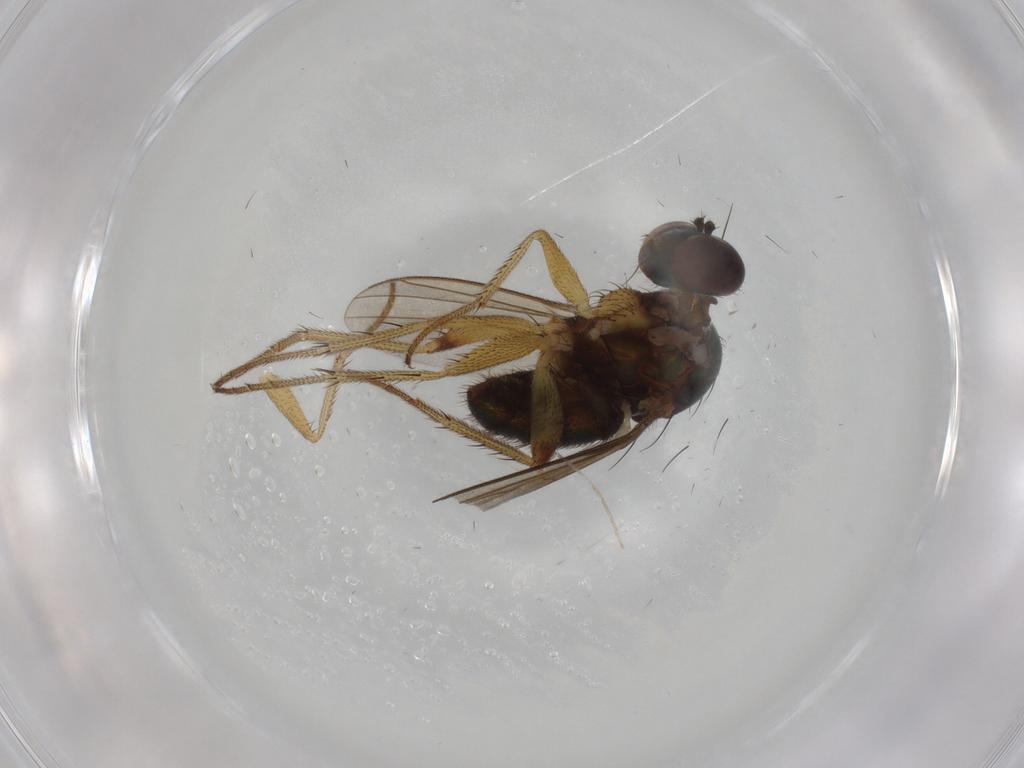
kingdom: Animalia
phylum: Arthropoda
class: Insecta
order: Diptera
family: Dolichopodidae
